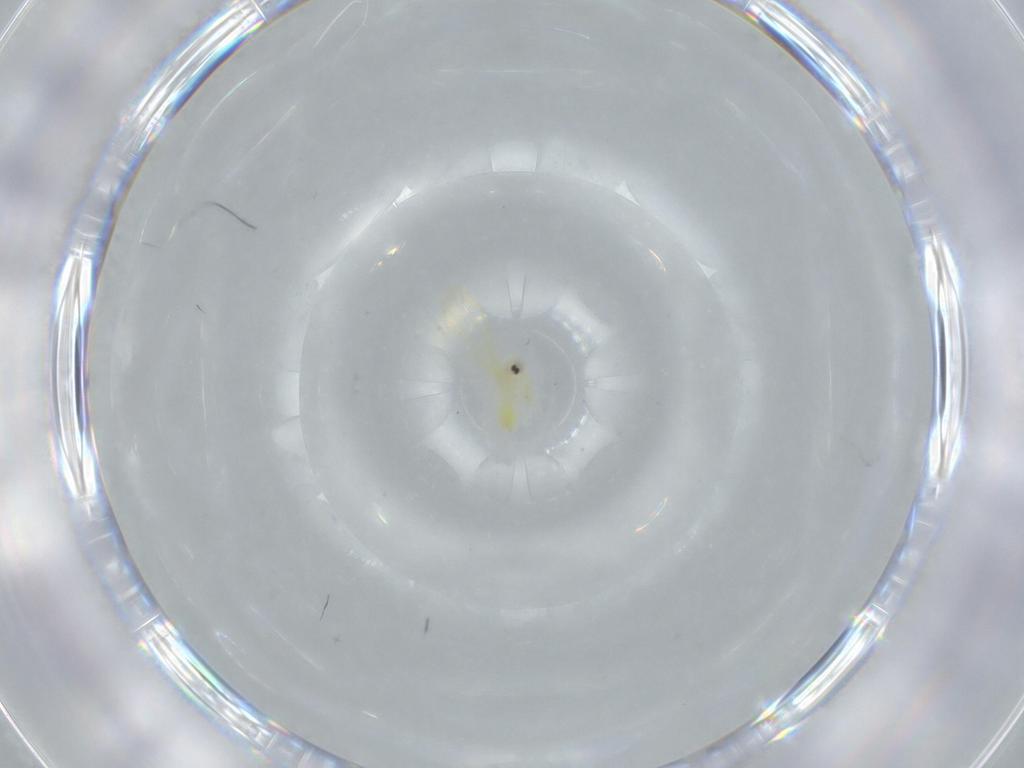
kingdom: Animalia
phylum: Arthropoda
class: Insecta
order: Hemiptera
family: Aleyrodidae
